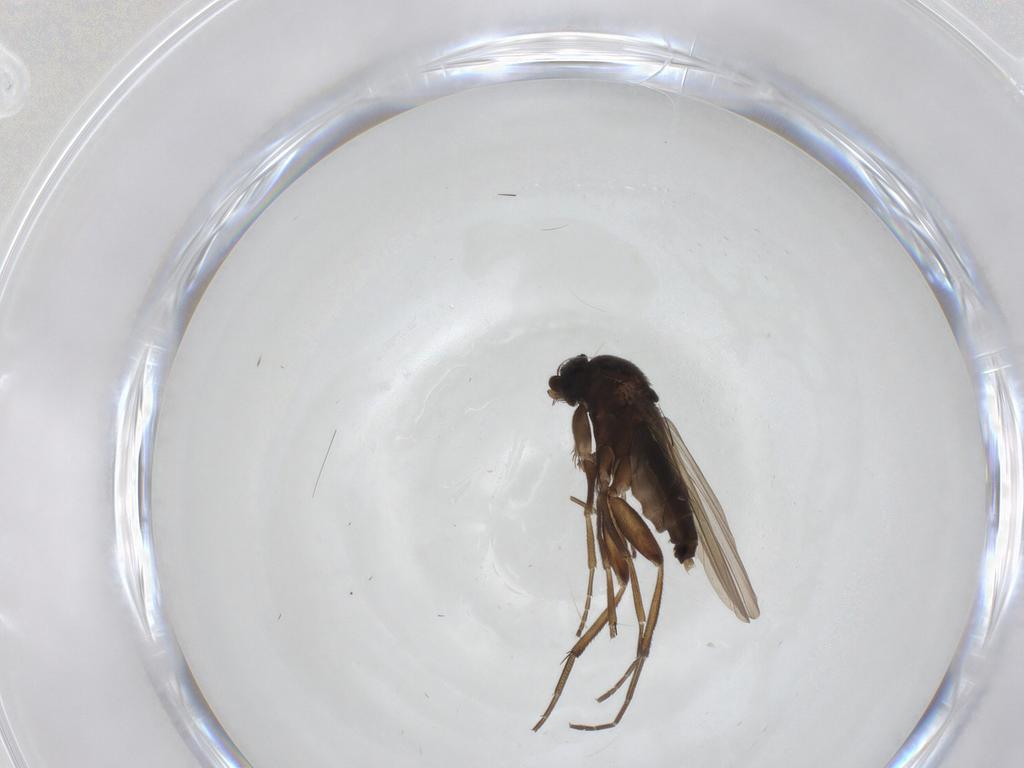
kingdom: Animalia
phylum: Arthropoda
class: Insecta
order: Diptera
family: Phoridae
